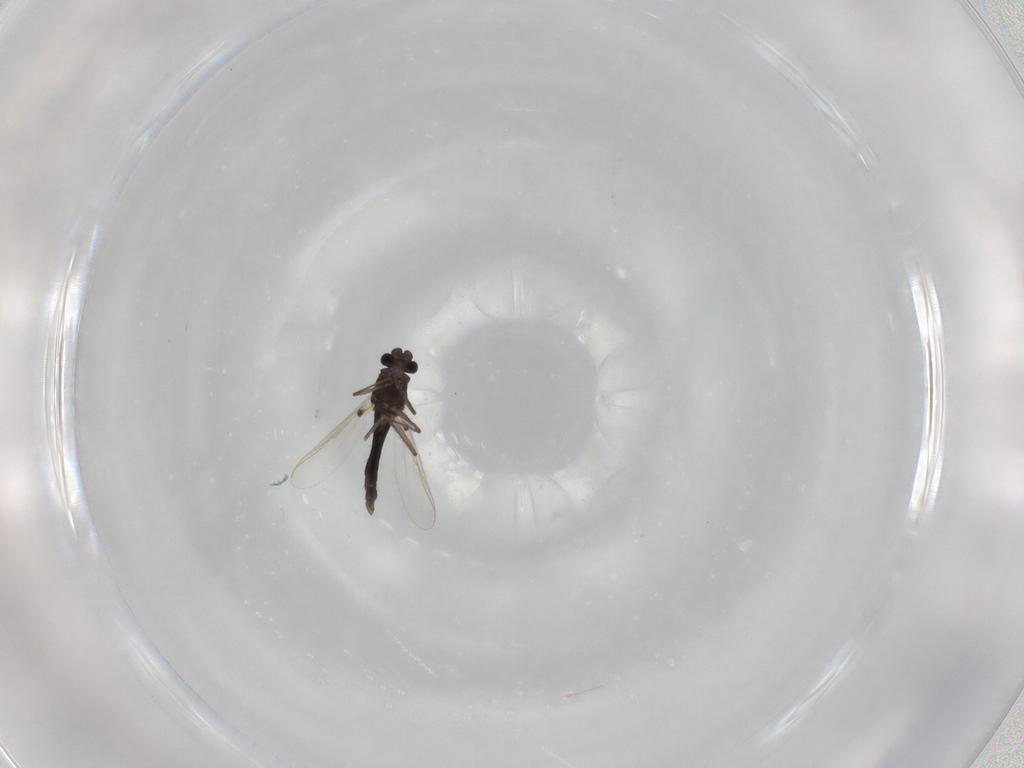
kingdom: Animalia
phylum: Arthropoda
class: Insecta
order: Diptera
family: Chironomidae
